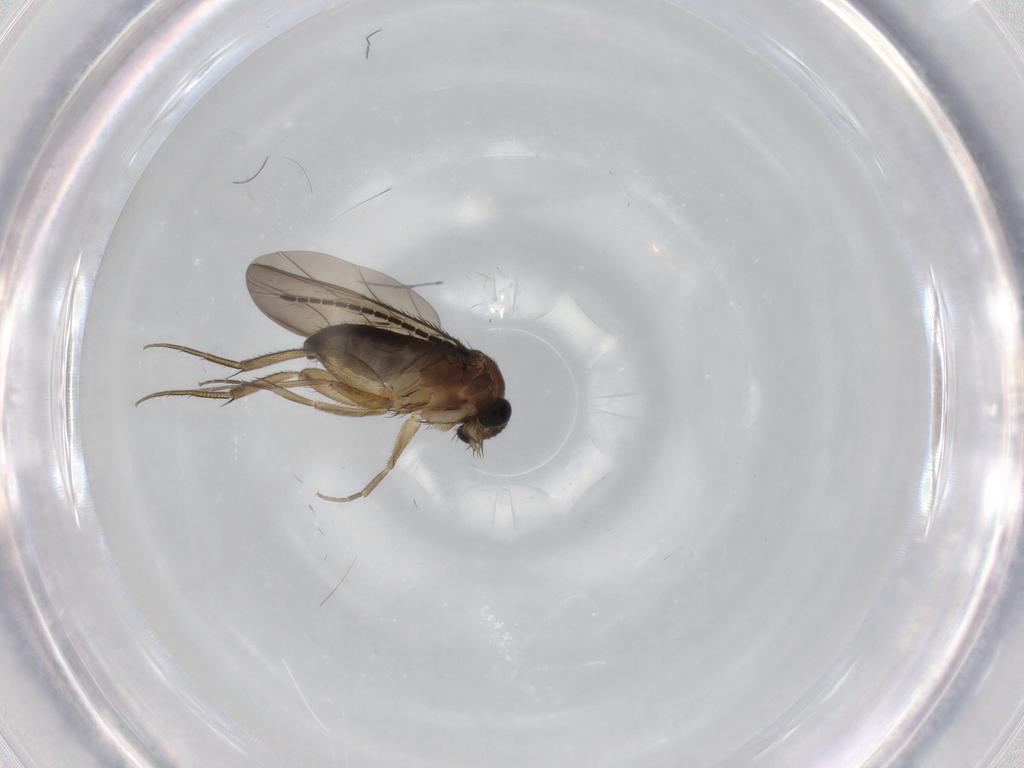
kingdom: Animalia
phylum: Arthropoda
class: Insecta
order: Diptera
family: Phoridae
